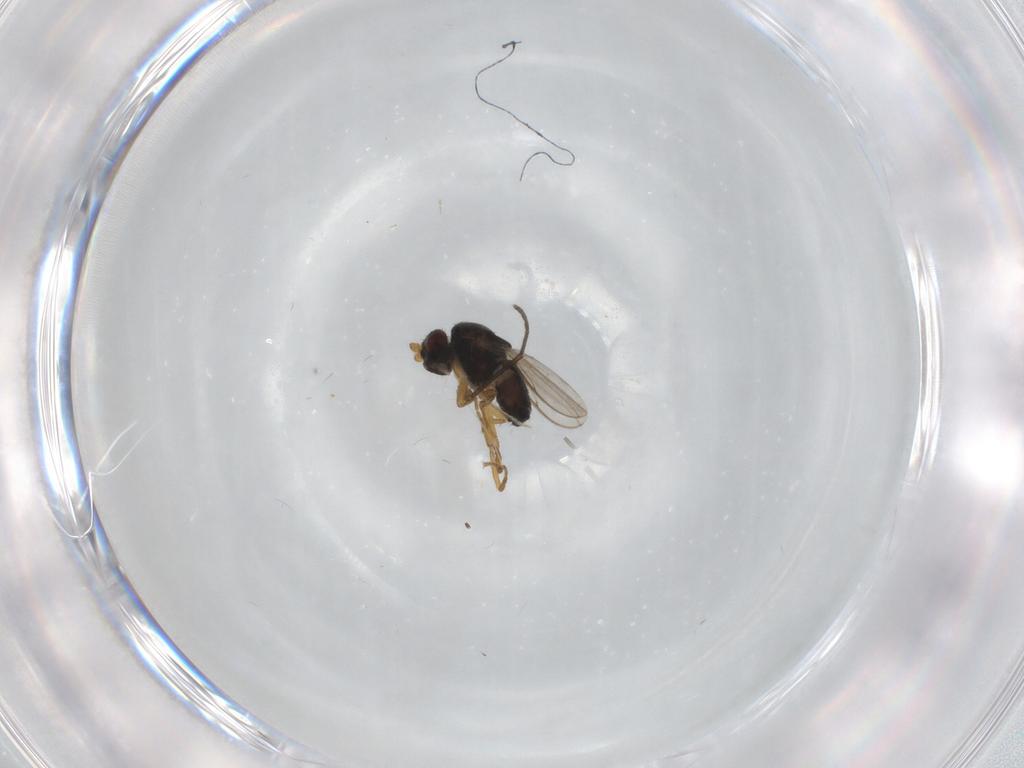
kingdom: Animalia
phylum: Arthropoda
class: Insecta
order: Diptera
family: Sphaeroceridae
